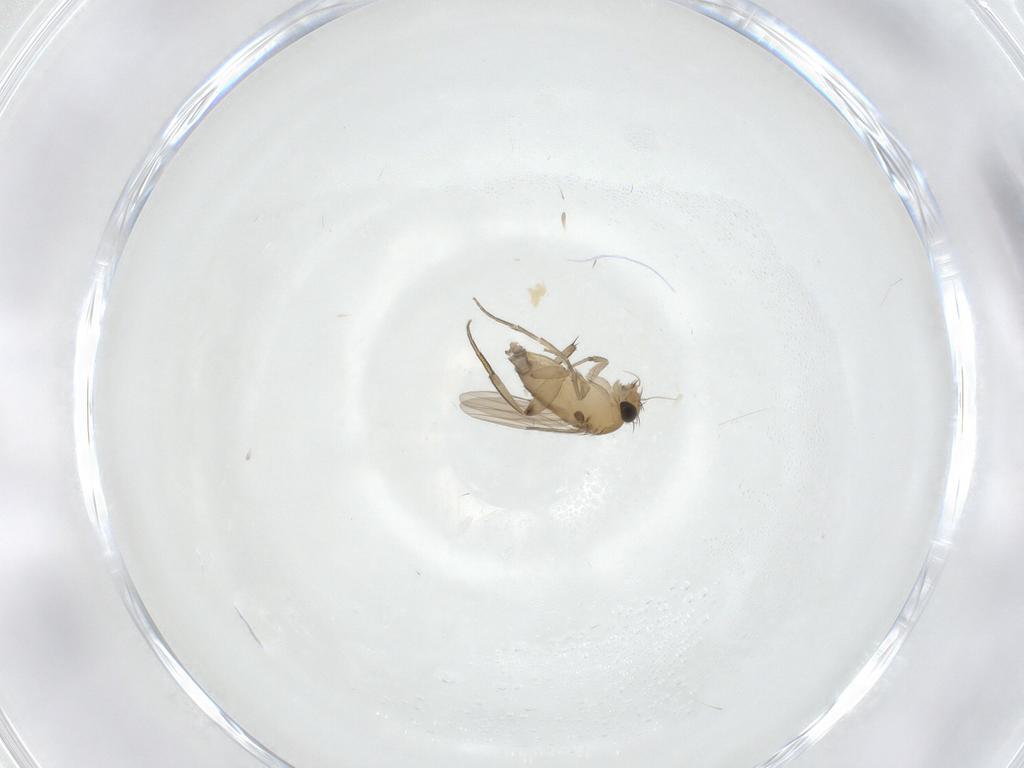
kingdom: Animalia
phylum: Arthropoda
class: Insecta
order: Diptera
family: Phoridae
